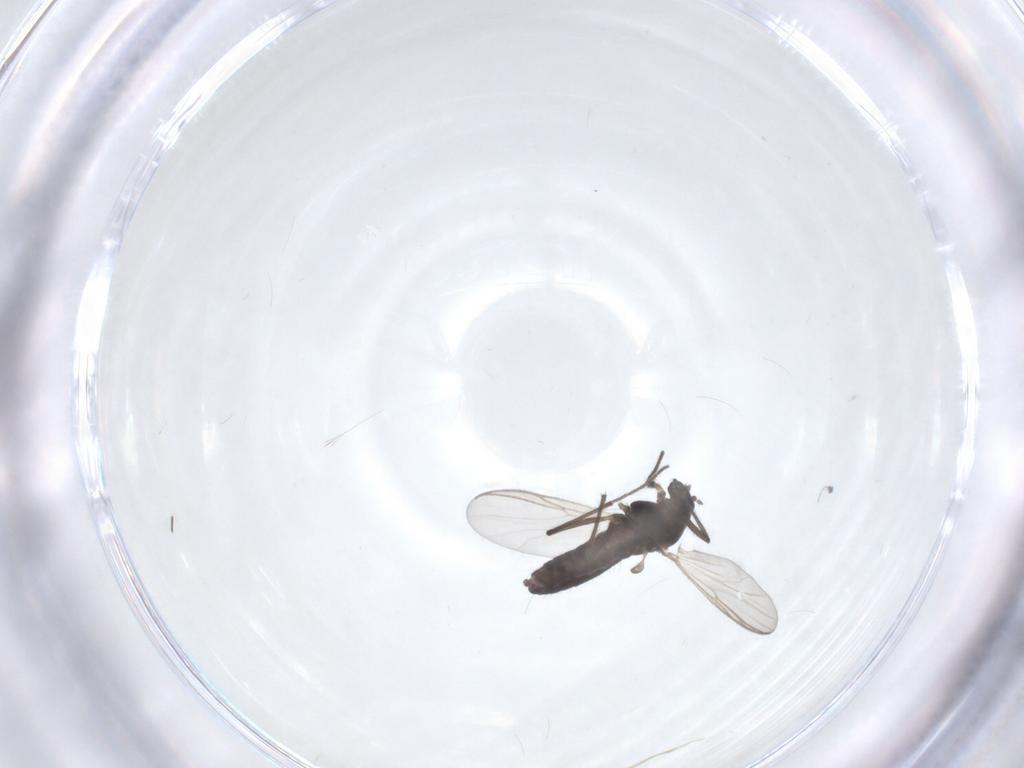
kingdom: Animalia
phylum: Arthropoda
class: Insecta
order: Diptera
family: Chironomidae
